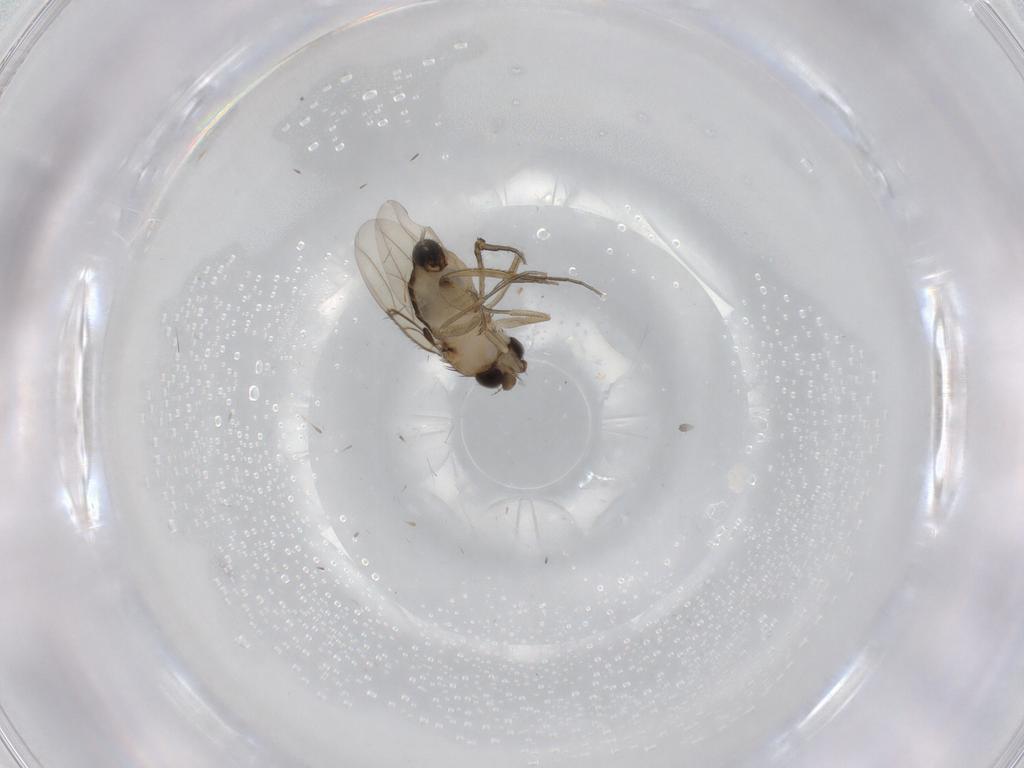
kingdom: Animalia
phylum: Arthropoda
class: Insecta
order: Diptera
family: Phoridae
